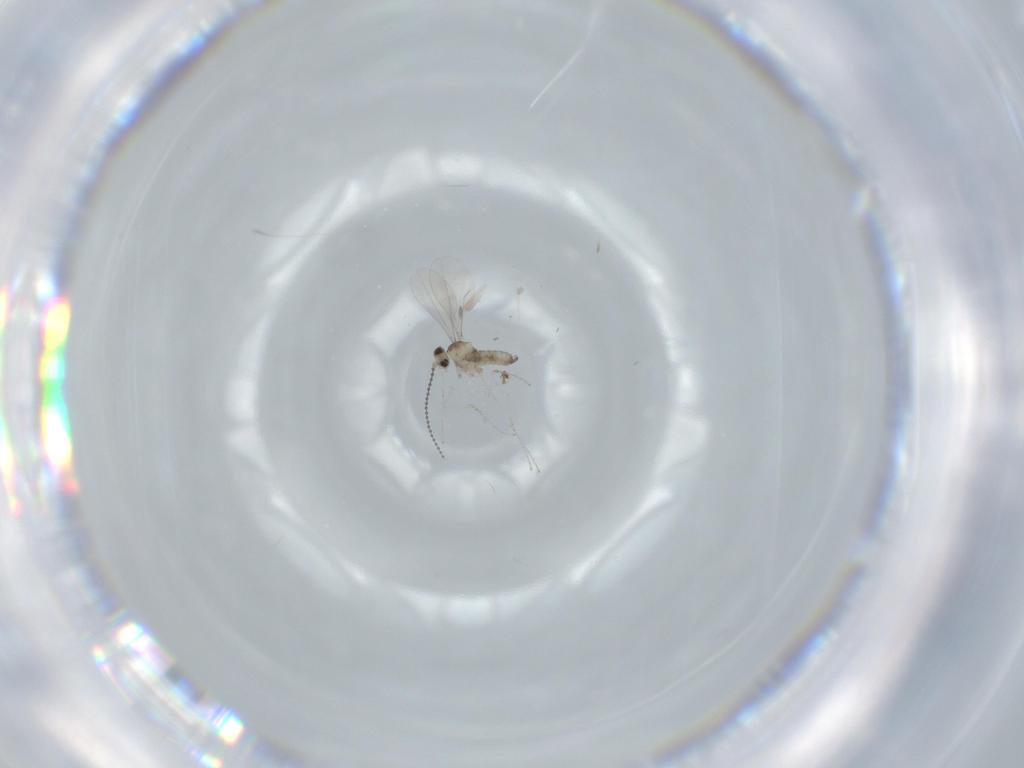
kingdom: Animalia
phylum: Arthropoda
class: Insecta
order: Diptera
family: Cecidomyiidae
